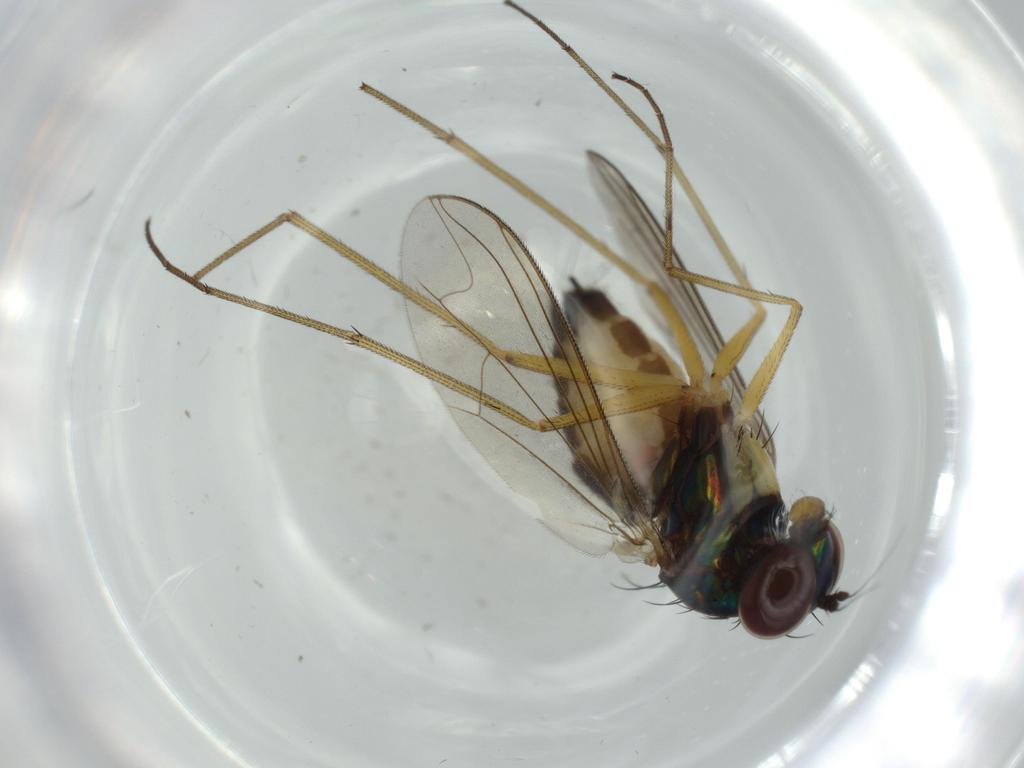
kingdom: Animalia
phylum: Arthropoda
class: Insecta
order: Diptera
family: Dolichopodidae
